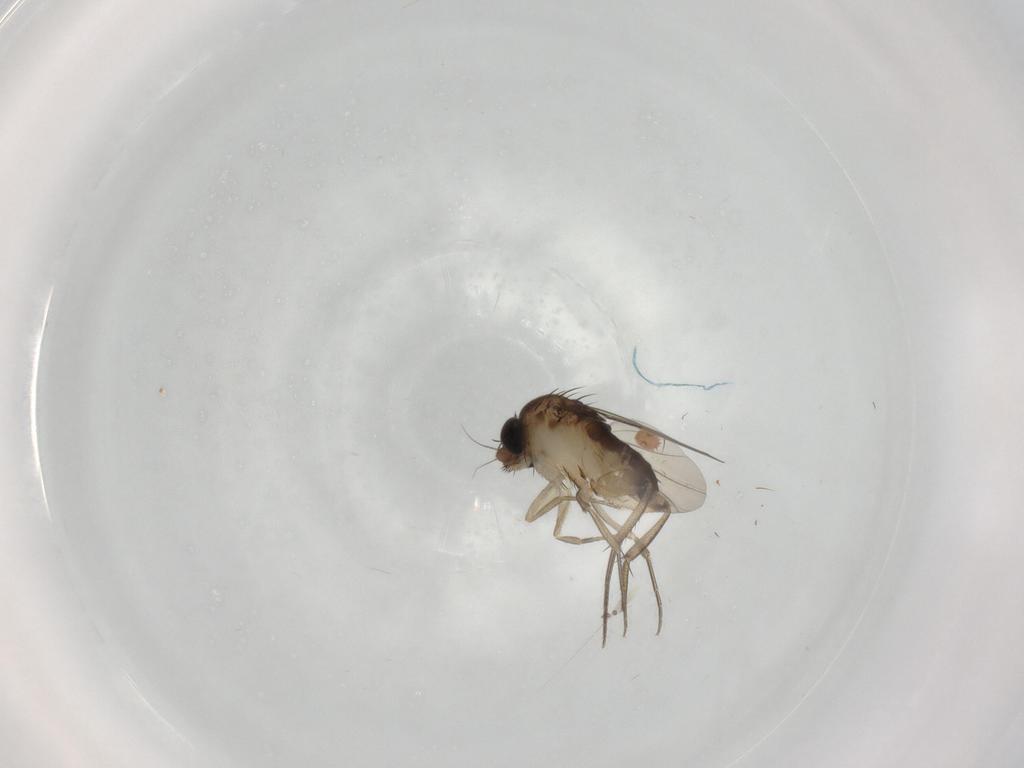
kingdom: Animalia
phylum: Arthropoda
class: Insecta
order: Diptera
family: Phoridae
